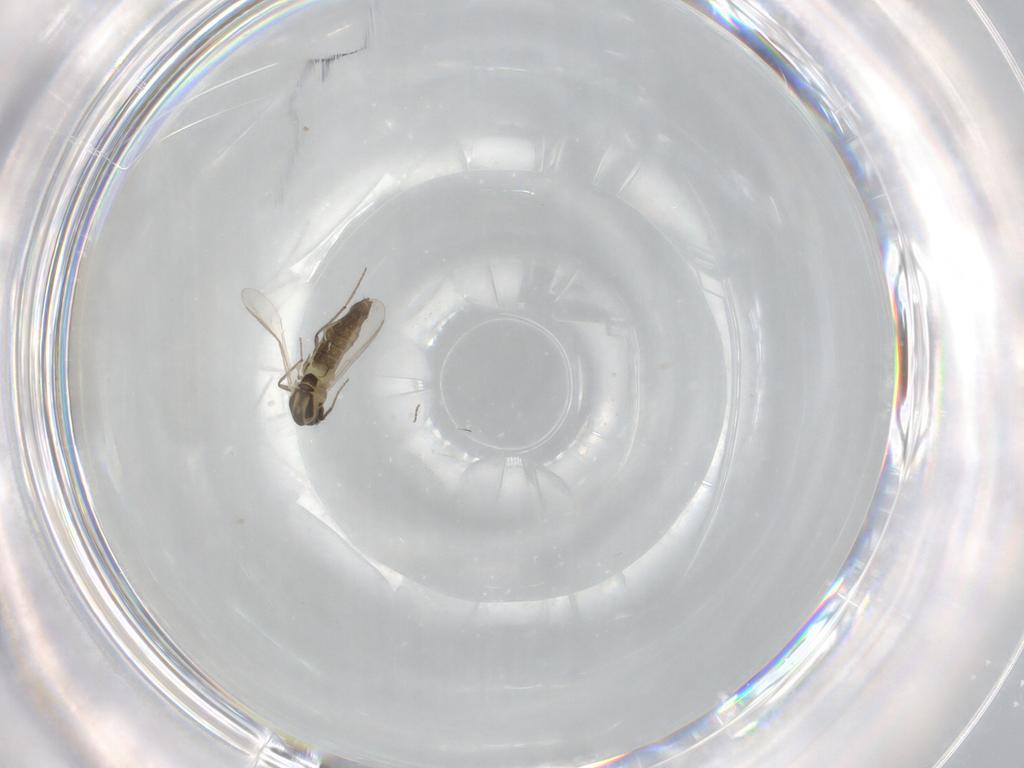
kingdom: Animalia
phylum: Arthropoda
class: Insecta
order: Diptera
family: Chironomidae
